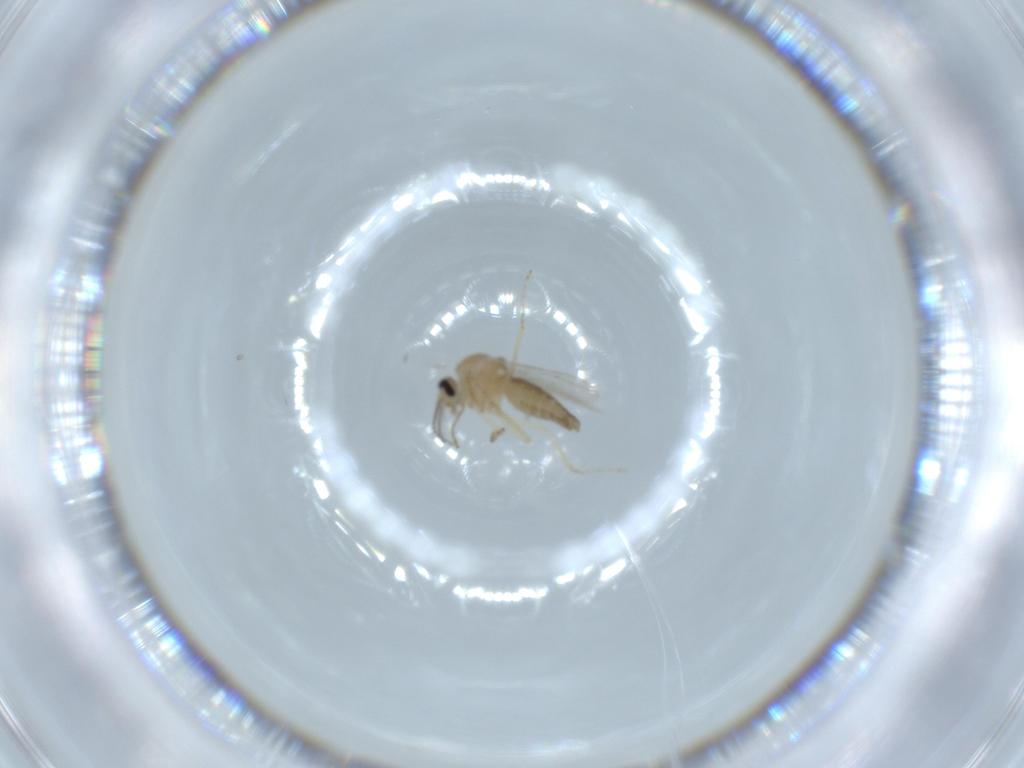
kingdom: Animalia
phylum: Arthropoda
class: Insecta
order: Diptera
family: Ceratopogonidae
